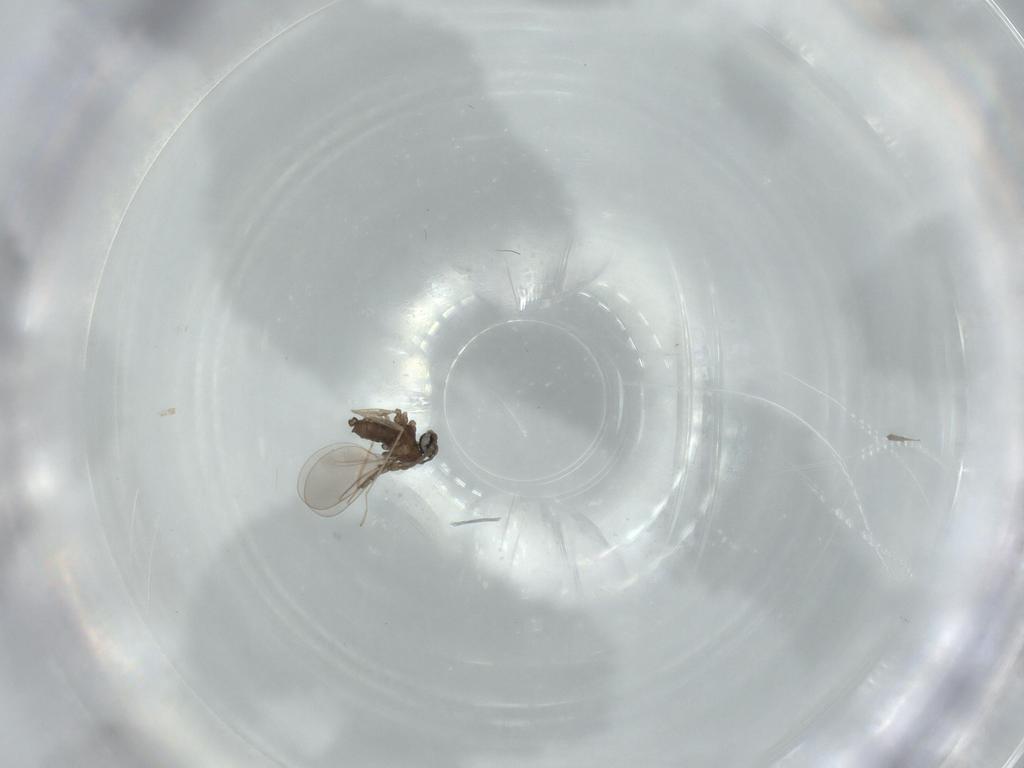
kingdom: Animalia
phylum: Arthropoda
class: Insecta
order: Diptera
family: Cecidomyiidae
